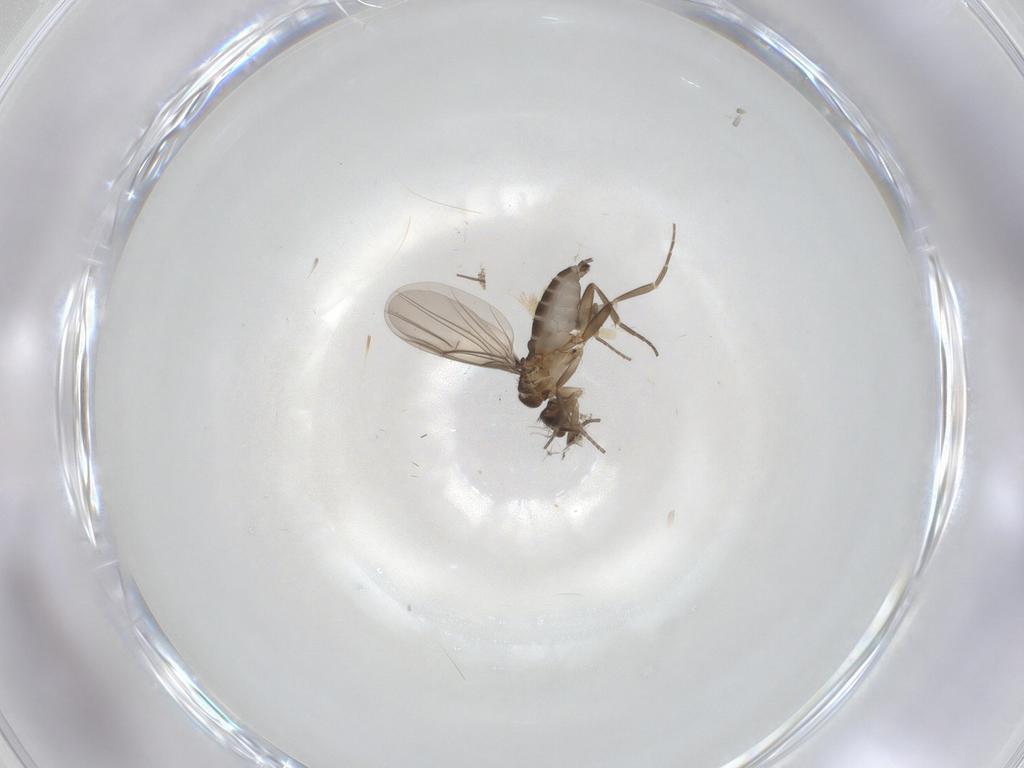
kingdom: Animalia
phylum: Arthropoda
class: Insecta
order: Diptera
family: Phoridae
